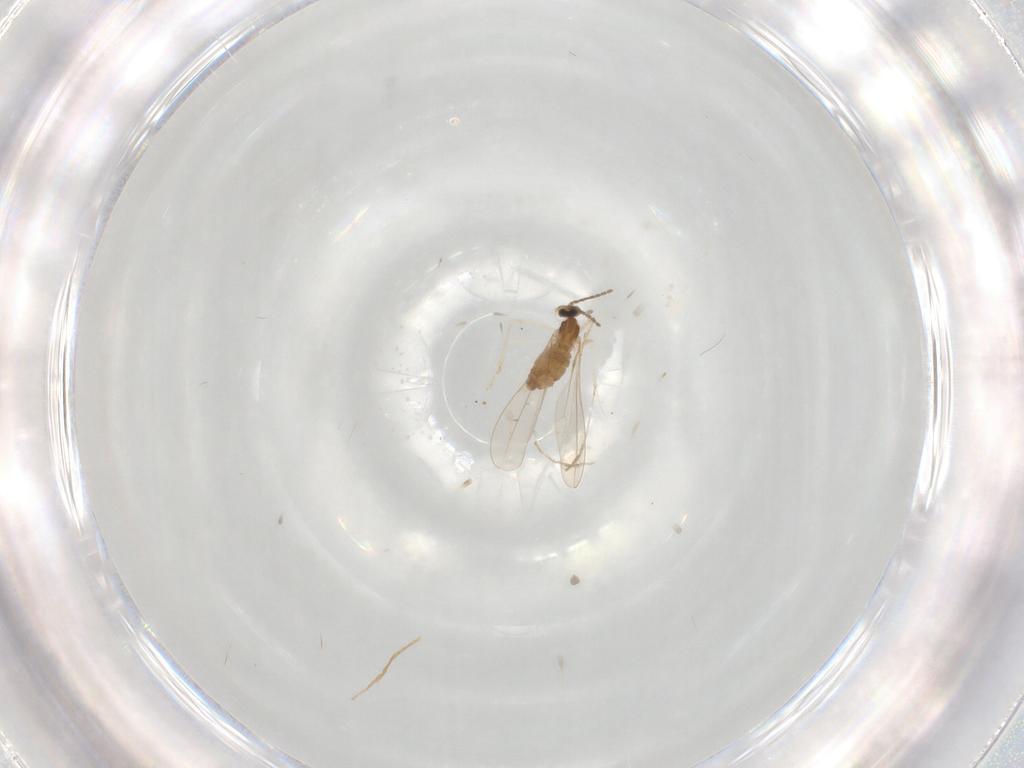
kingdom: Animalia
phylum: Arthropoda
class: Insecta
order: Diptera
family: Cecidomyiidae
